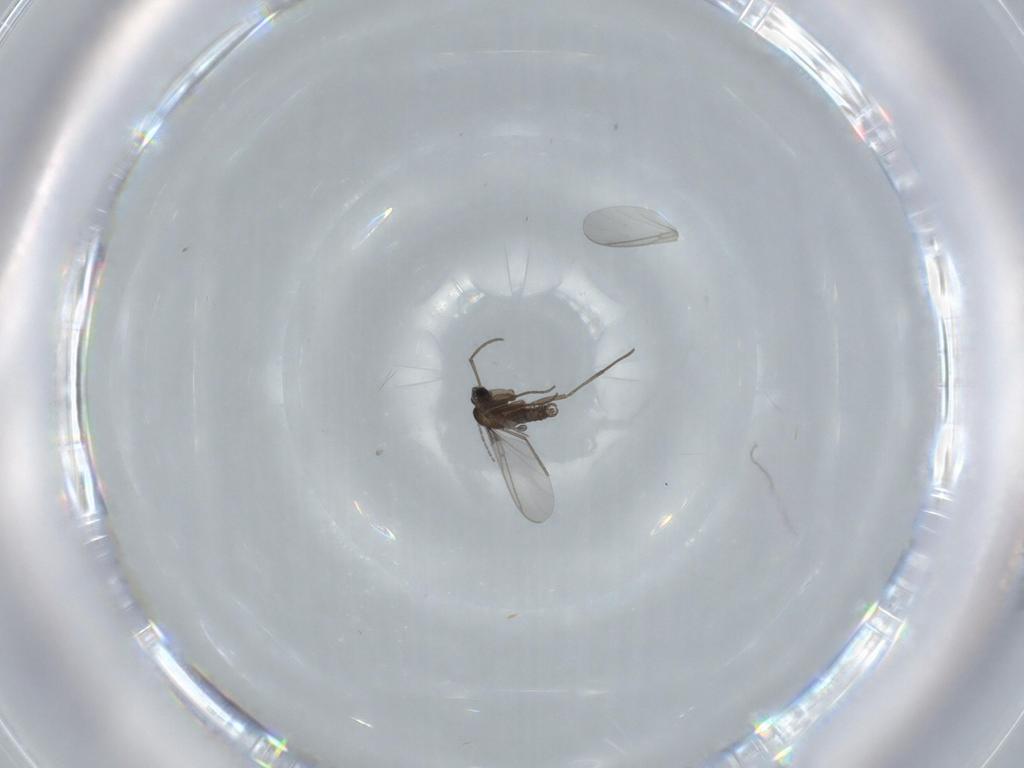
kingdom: Animalia
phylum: Arthropoda
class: Insecta
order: Diptera
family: Sciaridae
